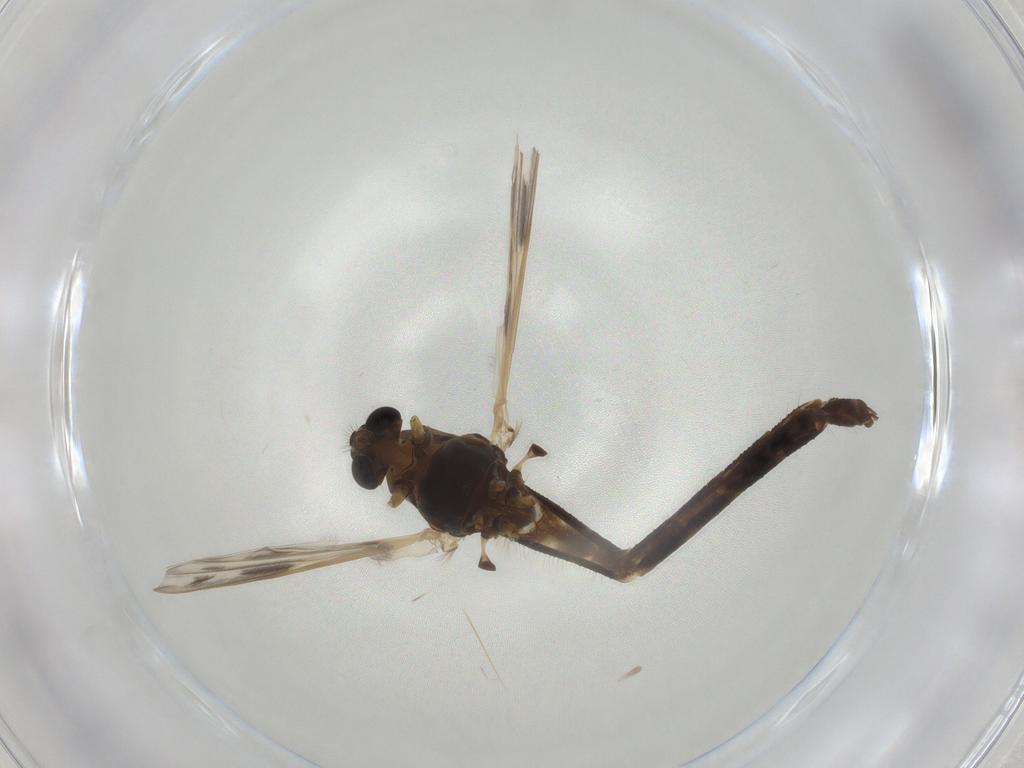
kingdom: Animalia
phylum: Arthropoda
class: Insecta
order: Diptera
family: Chironomidae
